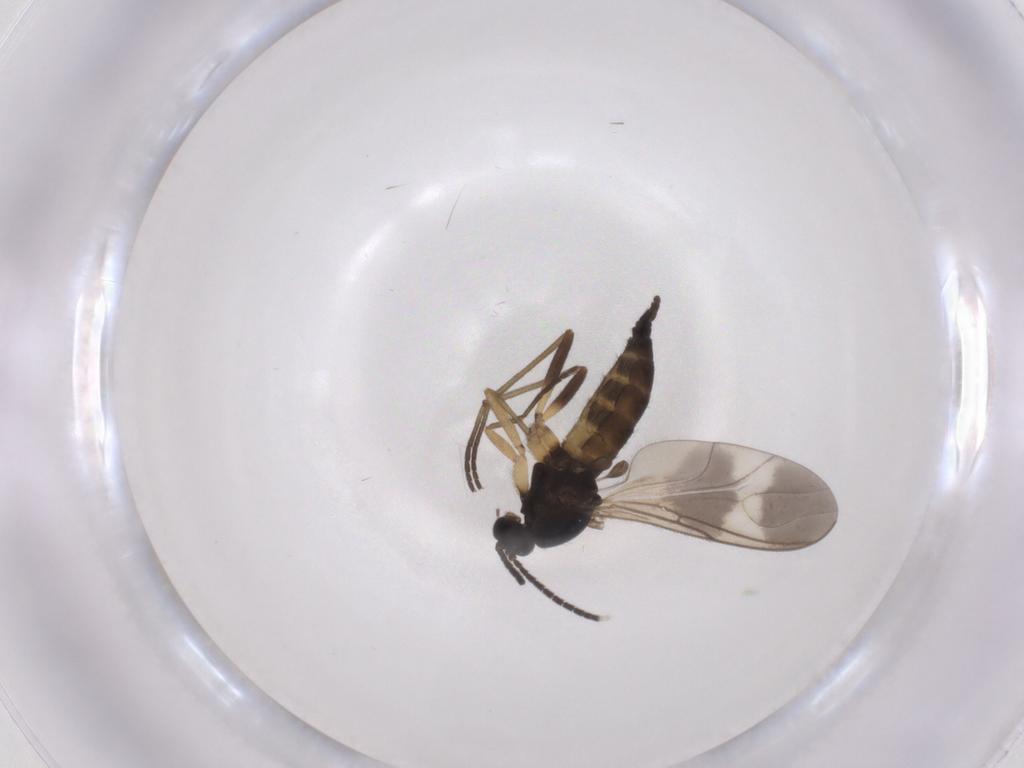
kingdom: Animalia
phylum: Arthropoda
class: Insecta
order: Diptera
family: Sciaridae
